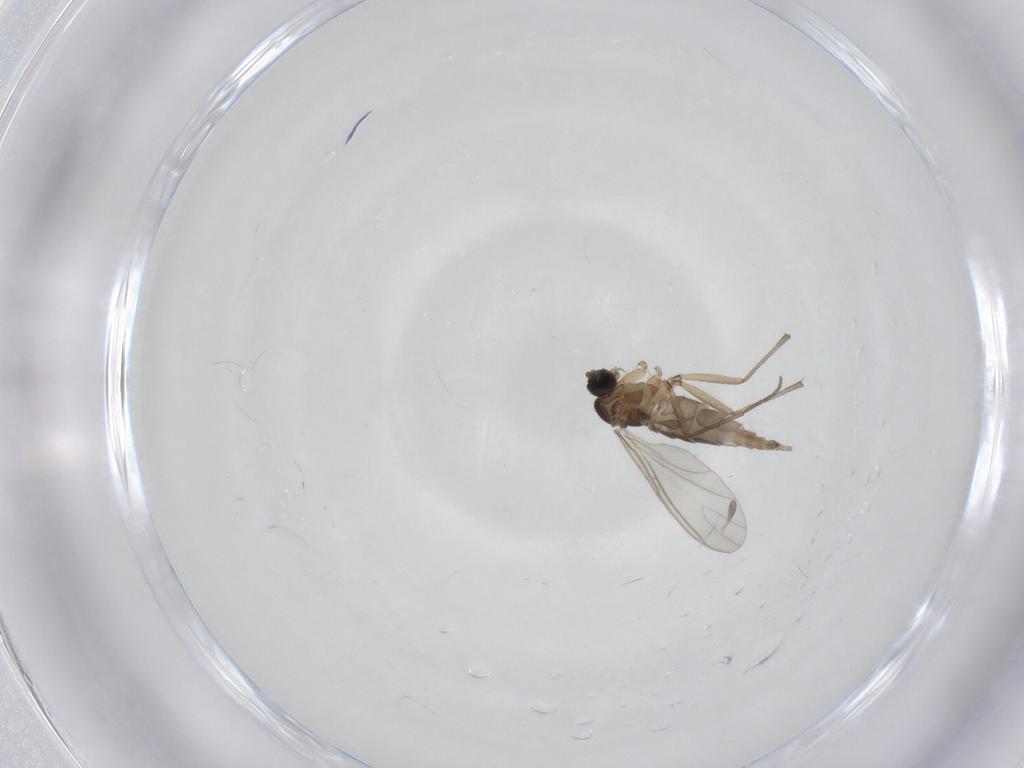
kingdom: Animalia
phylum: Arthropoda
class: Insecta
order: Diptera
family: Sciaridae
